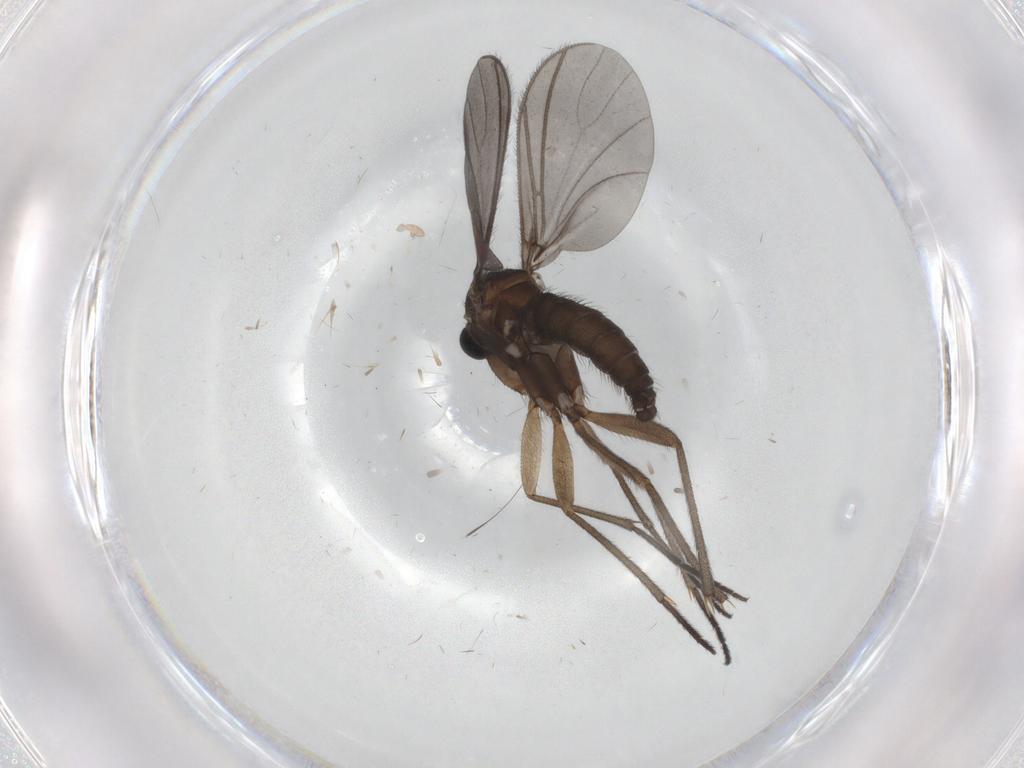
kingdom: Animalia
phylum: Arthropoda
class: Insecta
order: Diptera
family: Sciaridae
